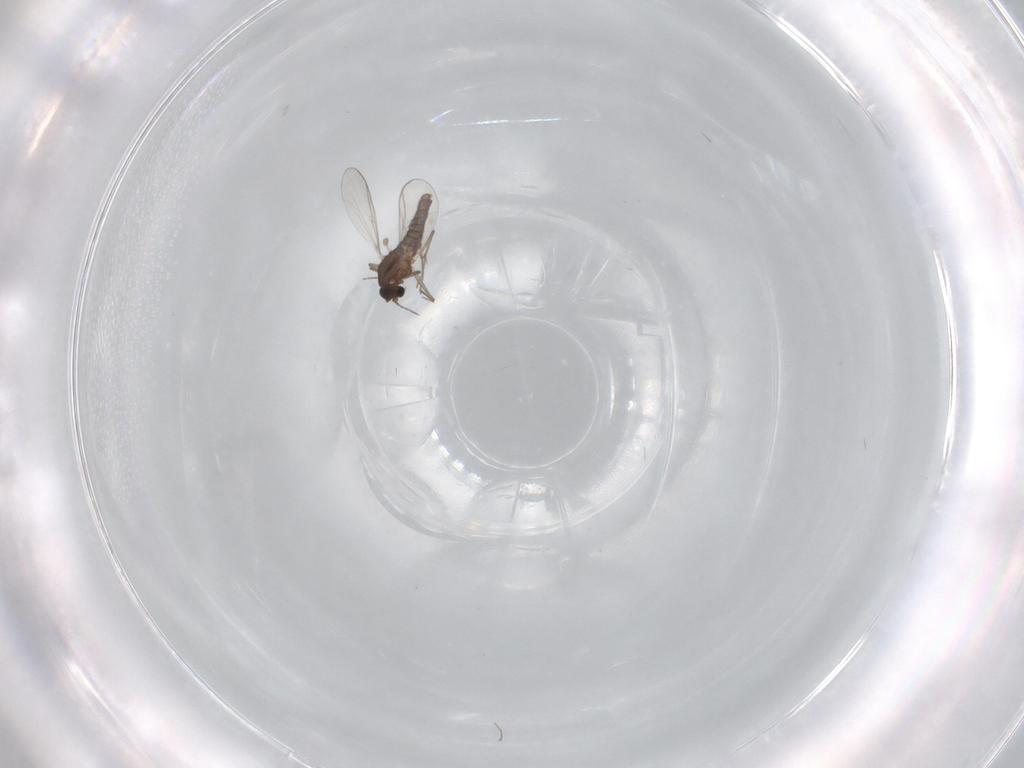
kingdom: Animalia
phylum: Arthropoda
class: Insecta
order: Diptera
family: Chironomidae
